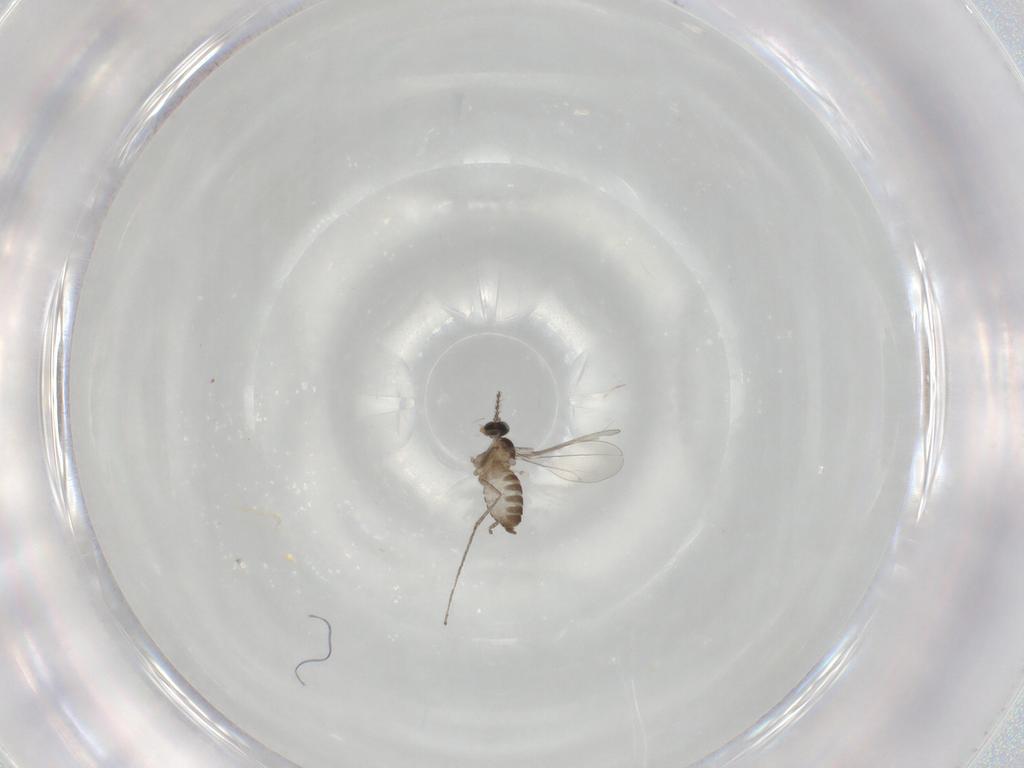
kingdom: Animalia
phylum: Arthropoda
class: Insecta
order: Diptera
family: Cecidomyiidae
